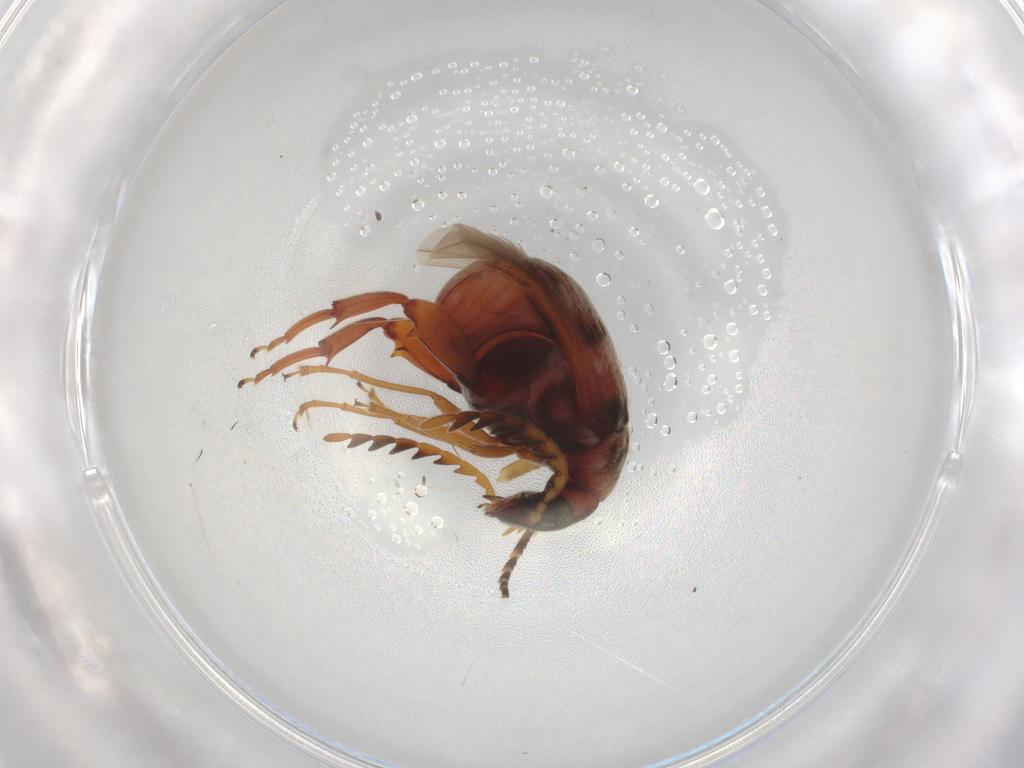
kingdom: Animalia
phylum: Arthropoda
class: Insecta
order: Coleoptera
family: Chrysomelidae
